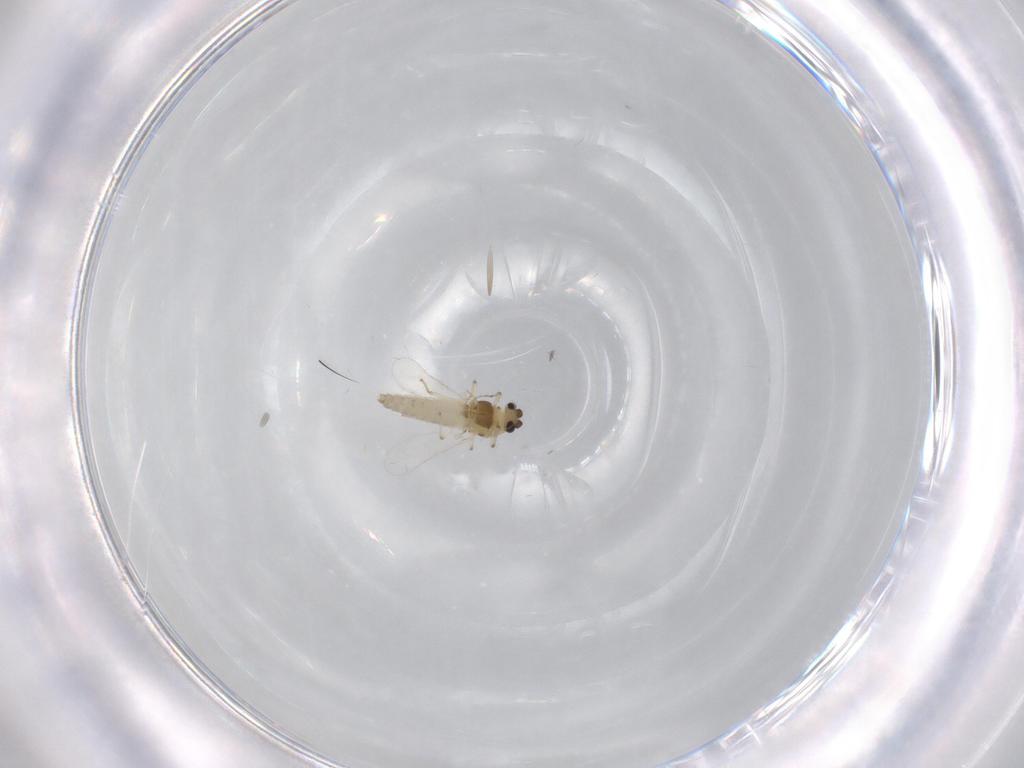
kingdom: Animalia
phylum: Arthropoda
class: Insecta
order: Diptera
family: Chironomidae
